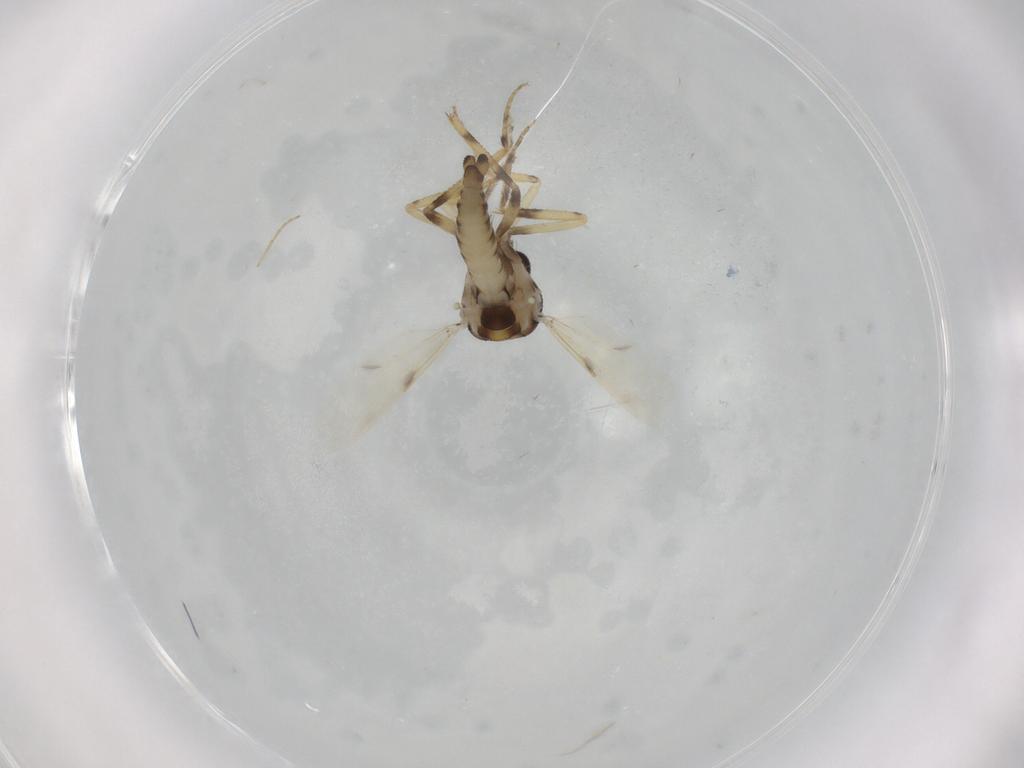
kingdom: Animalia
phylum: Arthropoda
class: Insecta
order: Diptera
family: Ceratopogonidae
